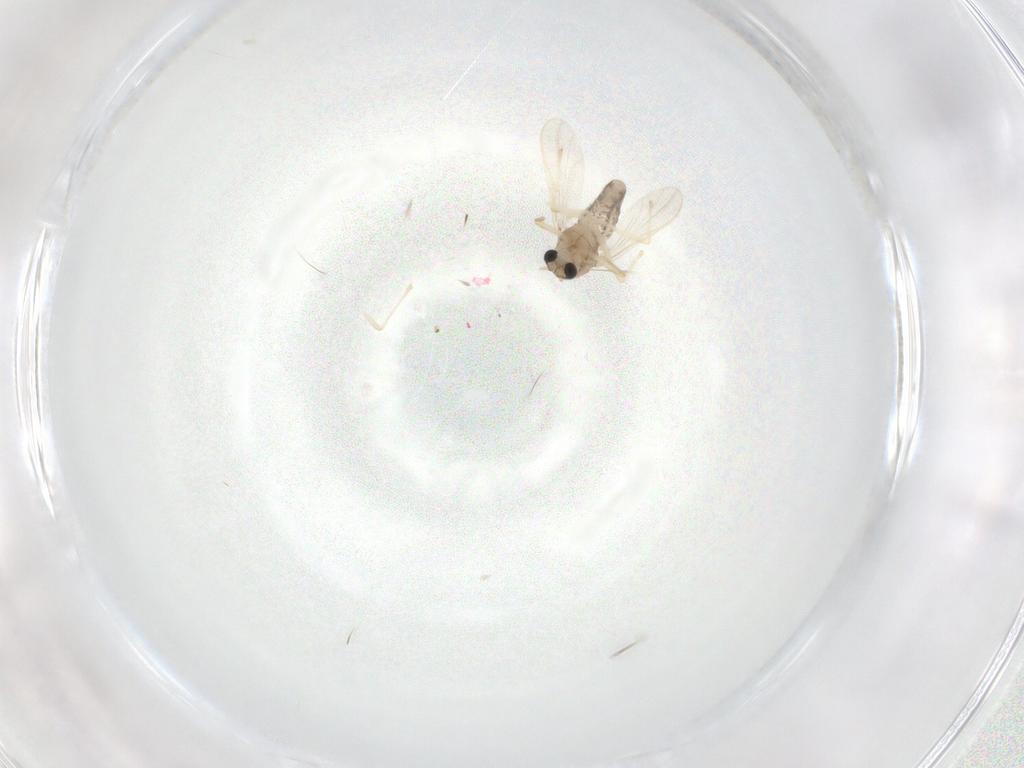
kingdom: Animalia
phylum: Arthropoda
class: Insecta
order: Diptera
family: Chironomidae
